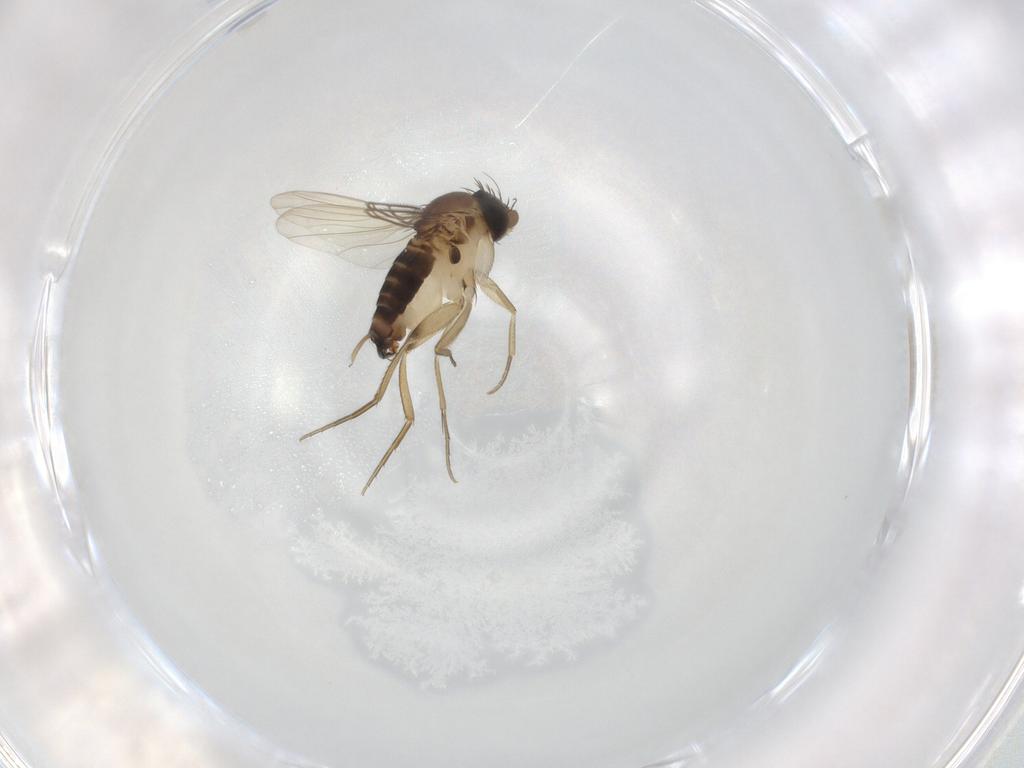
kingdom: Animalia
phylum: Arthropoda
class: Insecta
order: Diptera
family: Phoridae
